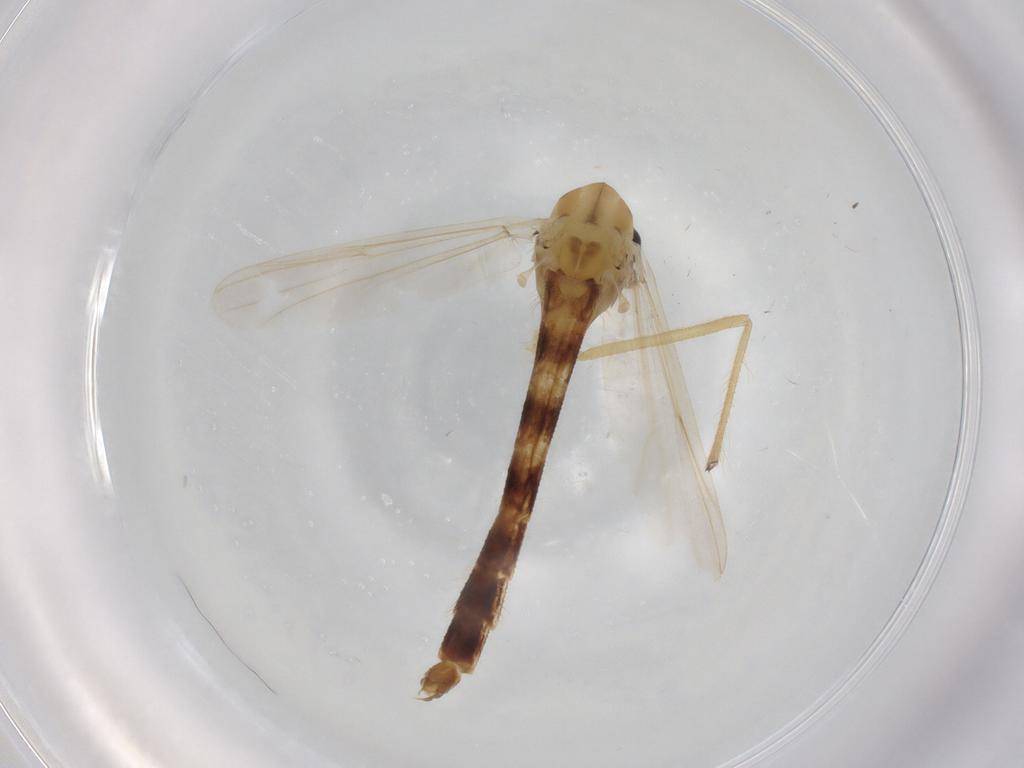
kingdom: Animalia
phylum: Arthropoda
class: Insecta
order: Diptera
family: Chironomidae
